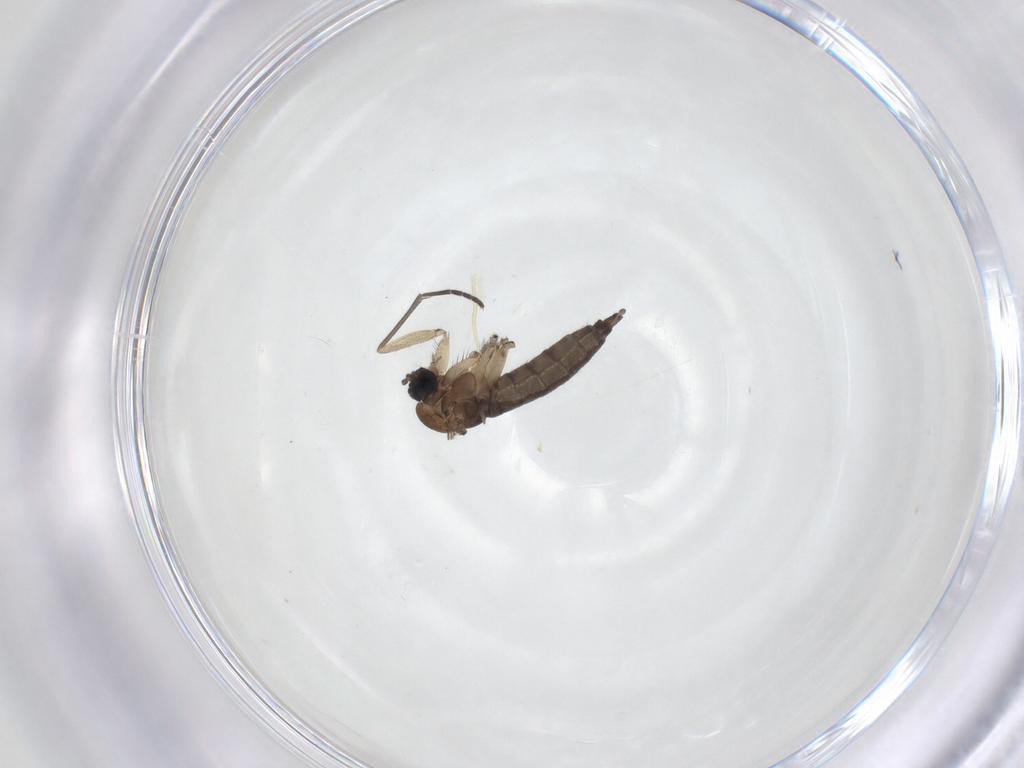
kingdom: Animalia
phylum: Arthropoda
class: Insecta
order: Diptera
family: Sciaridae
